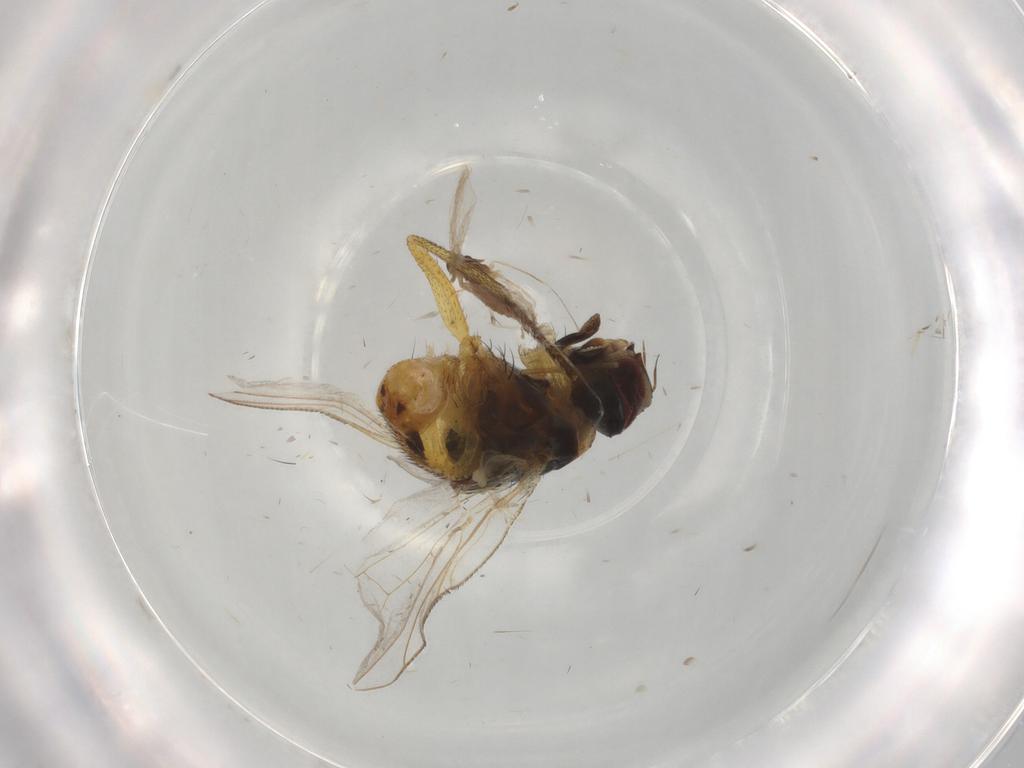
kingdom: Animalia
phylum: Arthropoda
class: Insecta
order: Diptera
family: Muscidae
